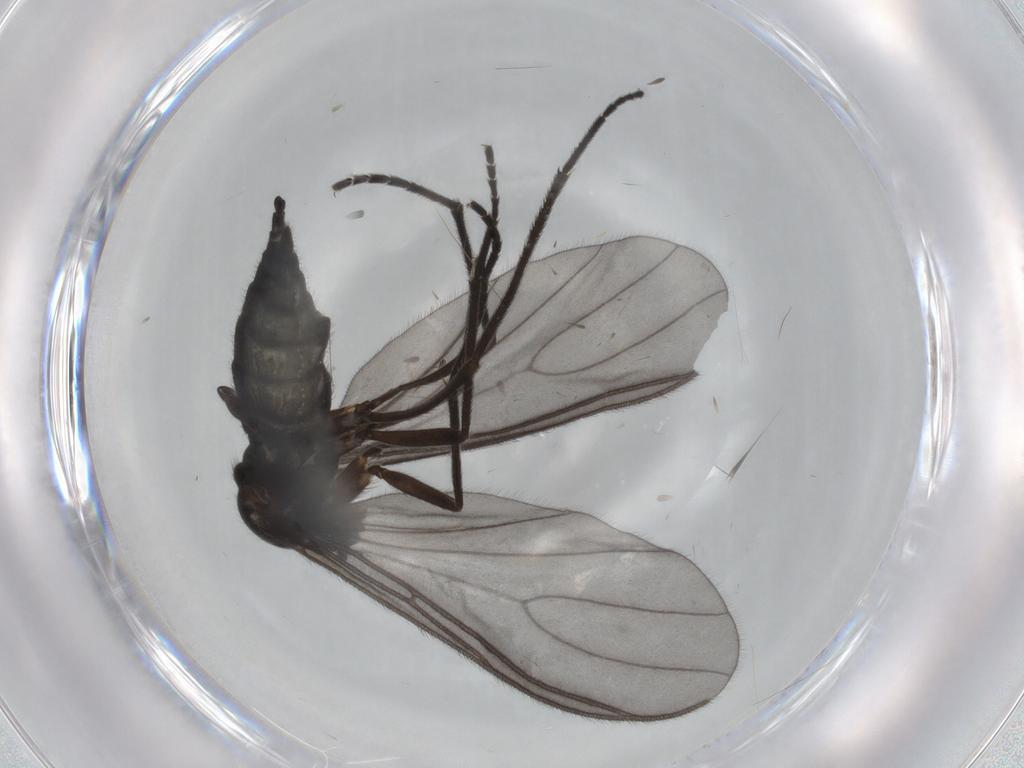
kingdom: Animalia
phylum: Arthropoda
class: Insecta
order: Diptera
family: Sciaridae
